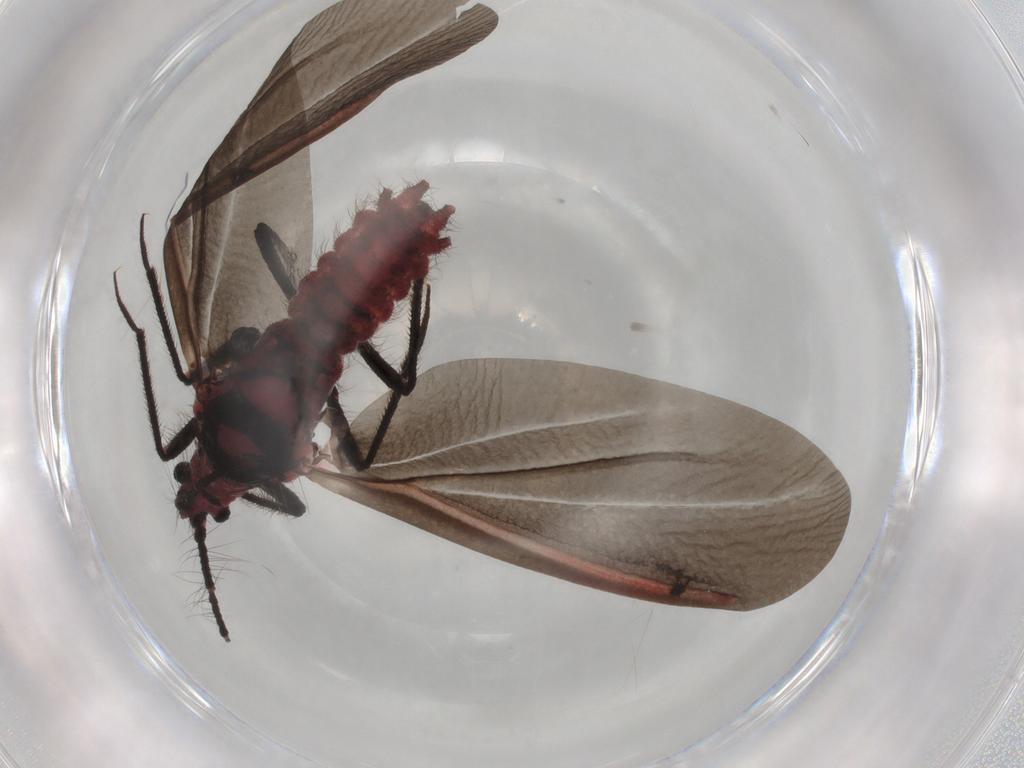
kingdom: Animalia
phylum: Arthropoda
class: Insecta
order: Hemiptera
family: Monophlebidae
